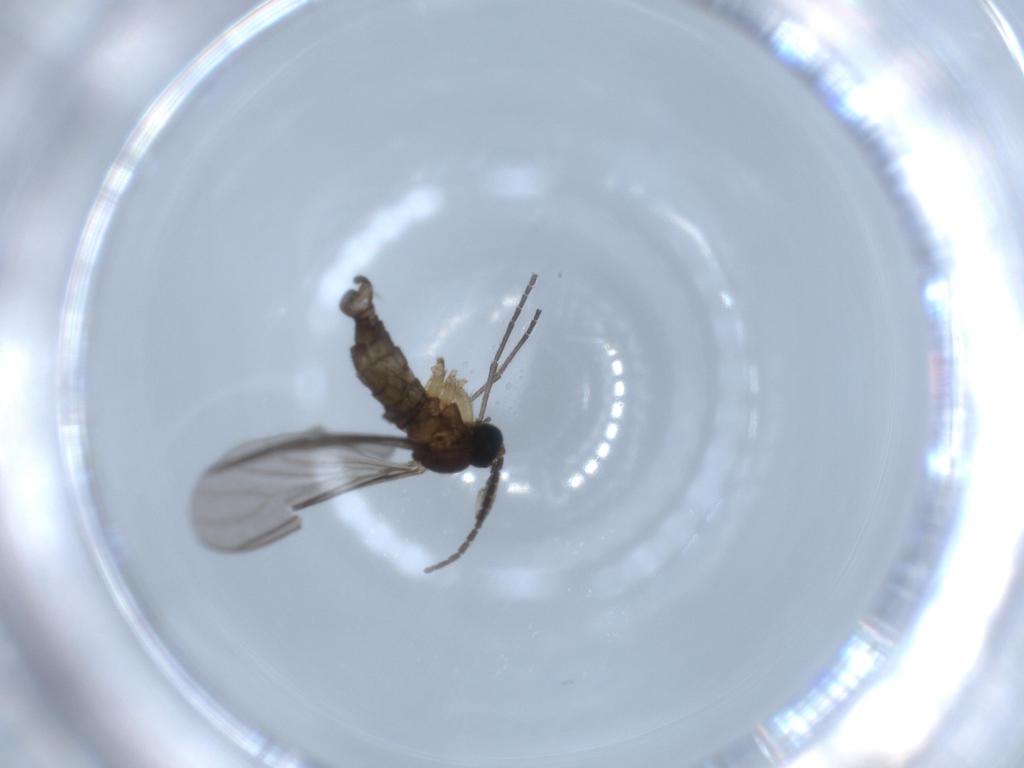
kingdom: Animalia
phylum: Arthropoda
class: Insecta
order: Diptera
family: Sciaridae
